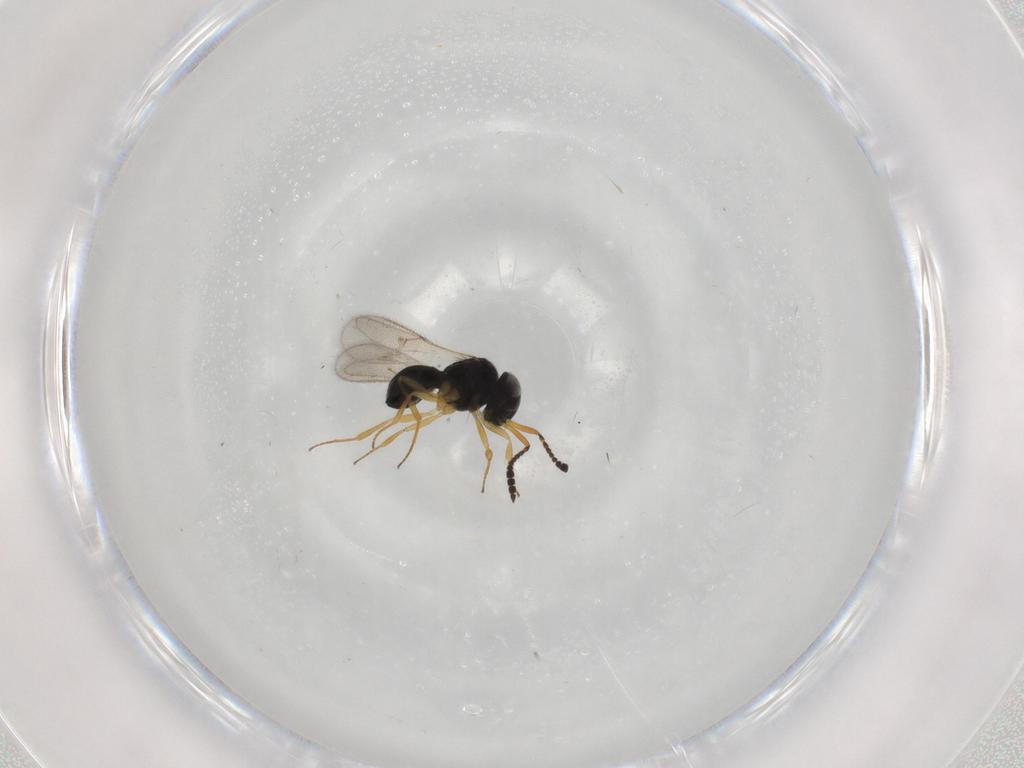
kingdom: Animalia
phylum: Arthropoda
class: Insecta
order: Hymenoptera
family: Scelionidae
